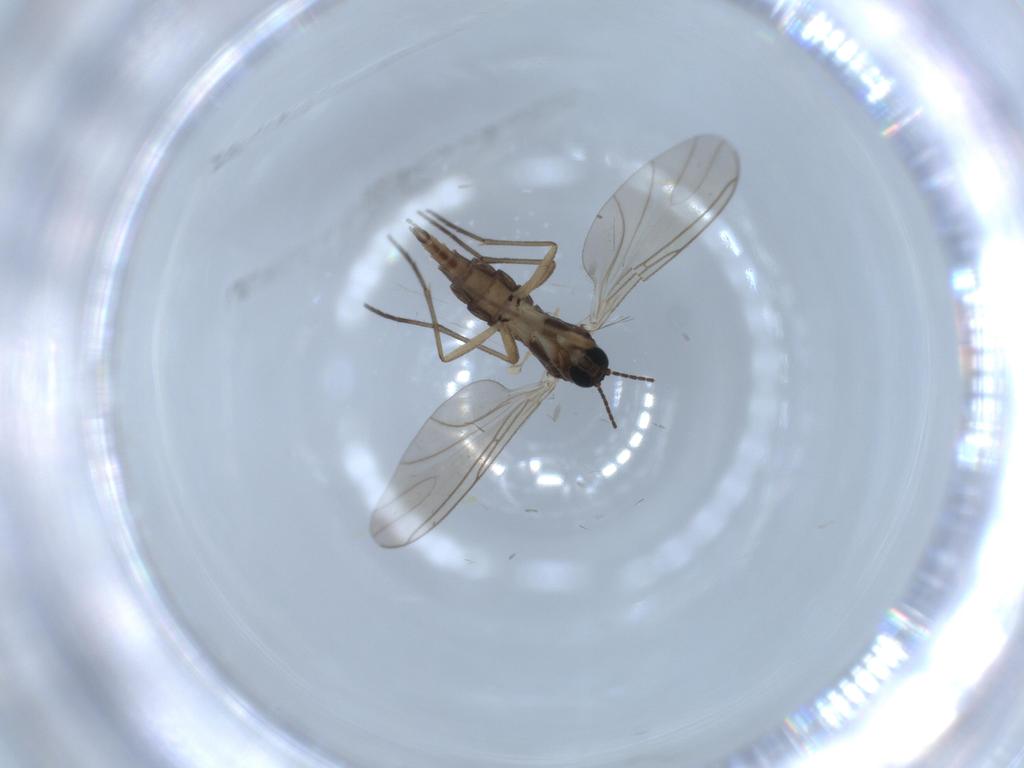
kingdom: Animalia
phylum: Arthropoda
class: Insecta
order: Diptera
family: Sciaridae
